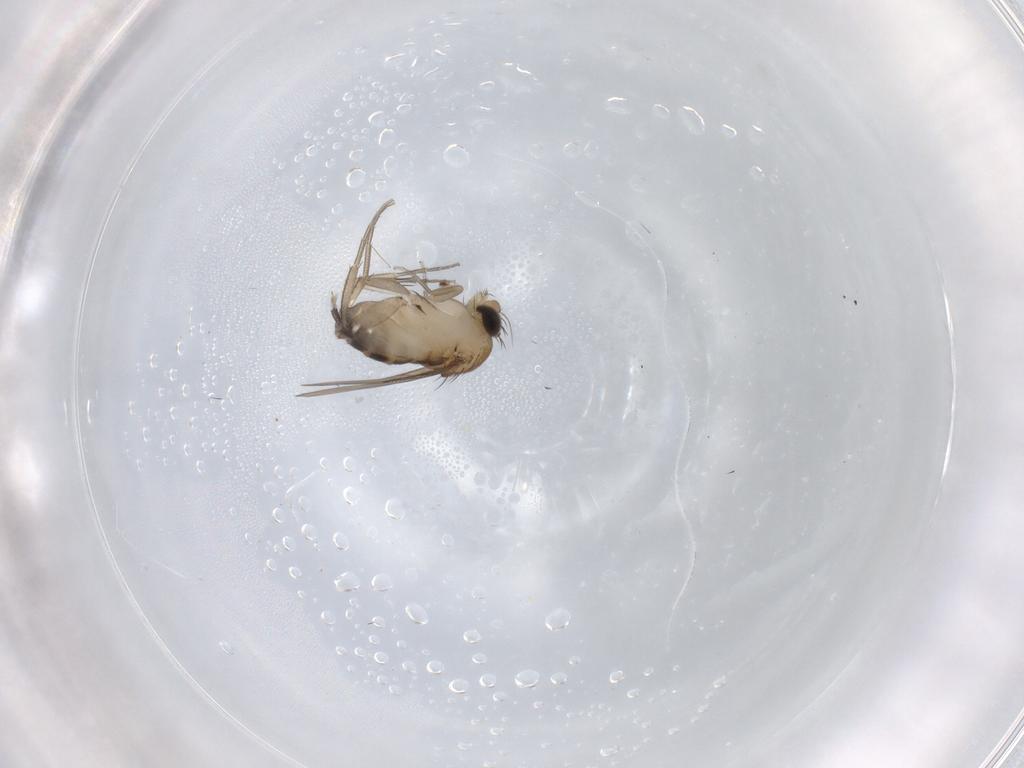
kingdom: Animalia
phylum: Arthropoda
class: Insecta
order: Diptera
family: Phoridae
